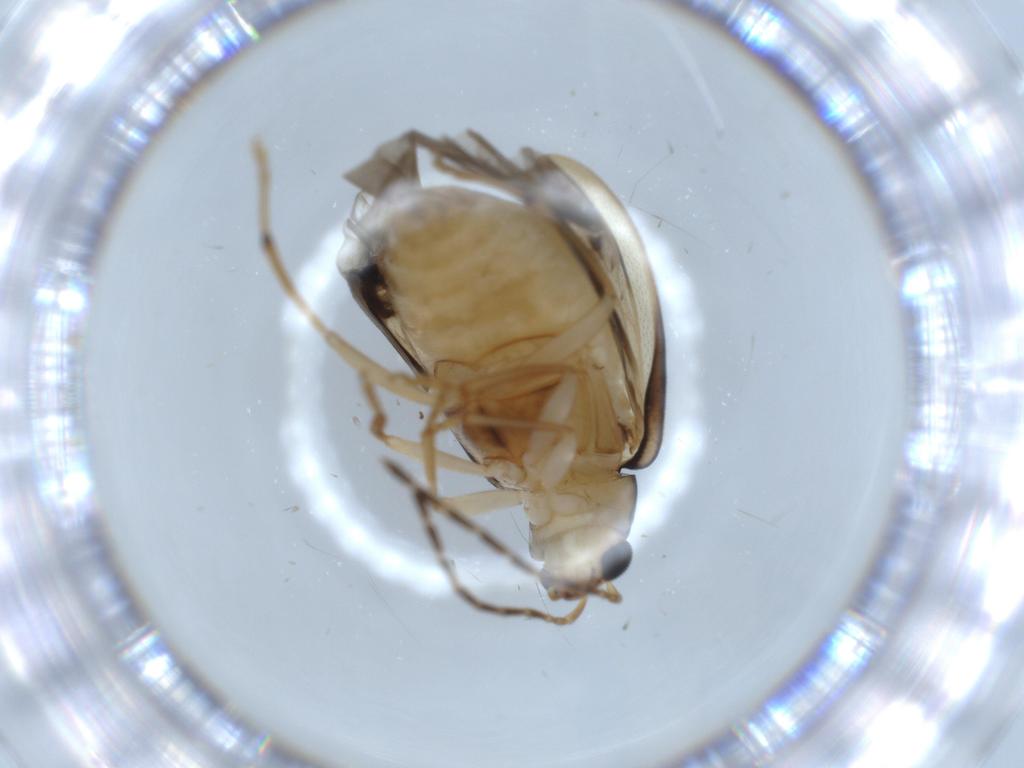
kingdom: Animalia
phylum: Arthropoda
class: Insecta
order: Coleoptera
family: Chrysomelidae
